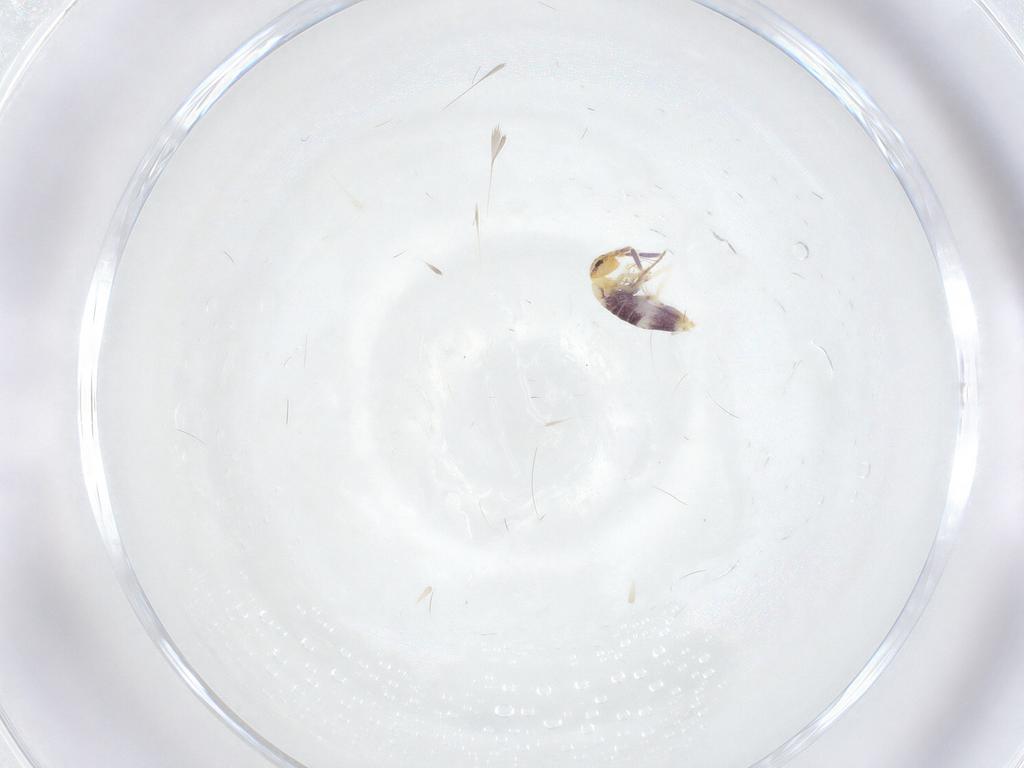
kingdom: Animalia
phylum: Arthropoda
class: Collembola
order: Entomobryomorpha
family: Entomobryidae
